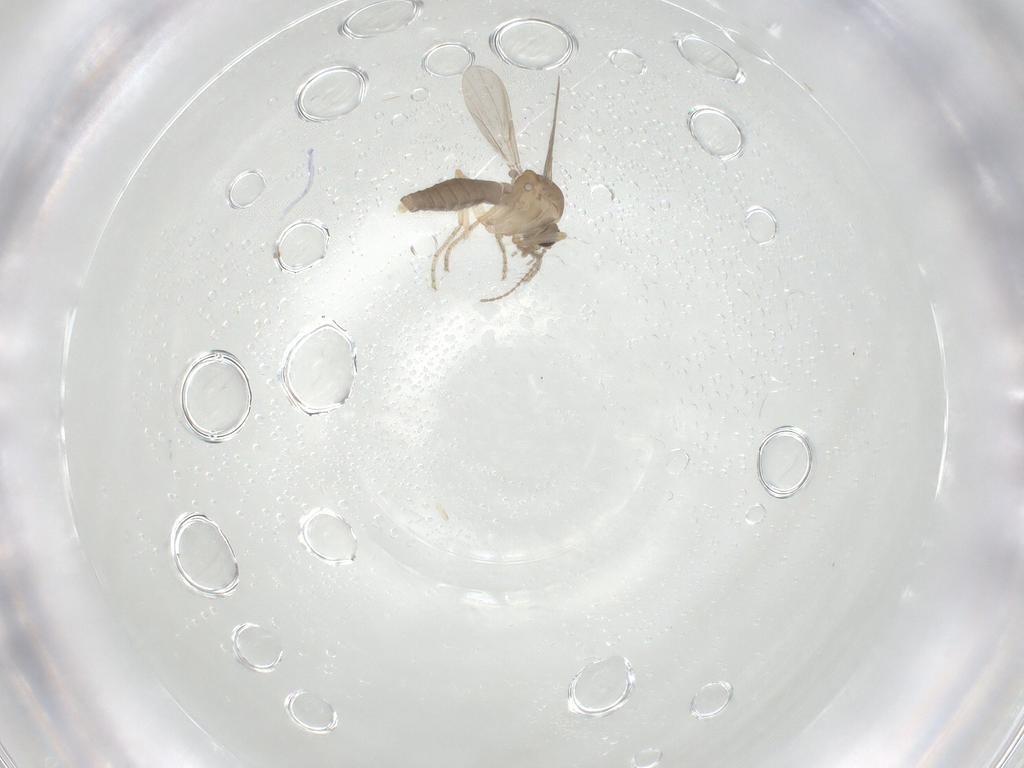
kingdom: Animalia
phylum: Arthropoda
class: Insecta
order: Diptera
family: Ceratopogonidae
